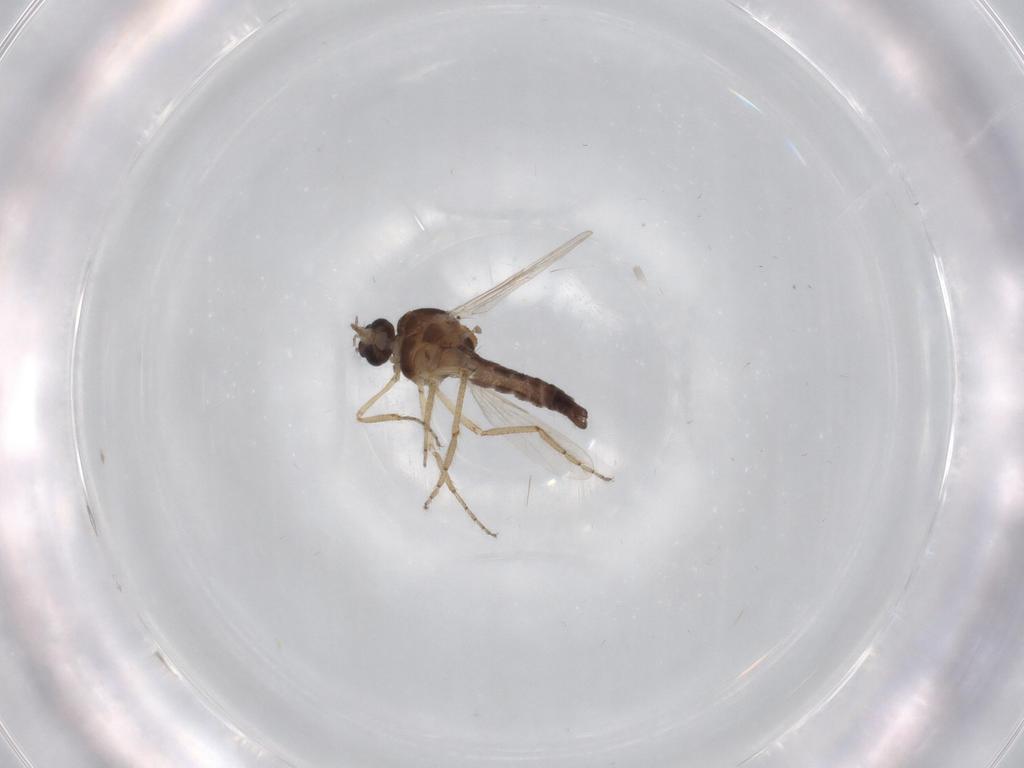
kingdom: Animalia
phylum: Arthropoda
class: Insecta
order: Diptera
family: Ceratopogonidae
